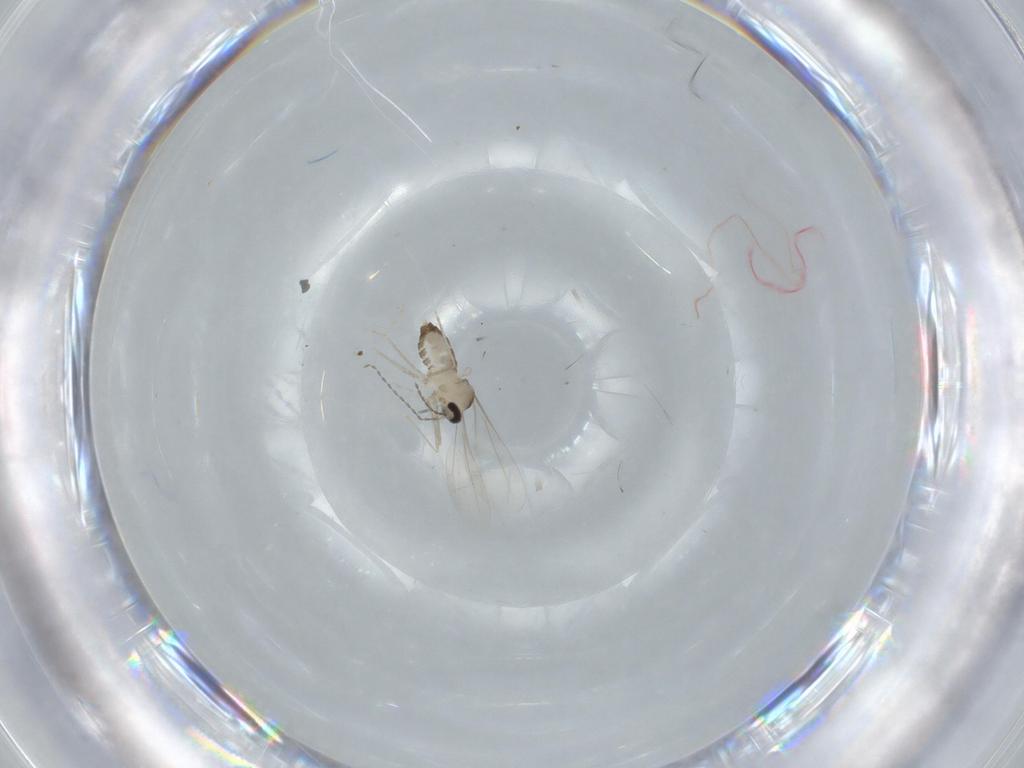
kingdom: Animalia
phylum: Arthropoda
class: Insecta
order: Diptera
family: Cecidomyiidae
